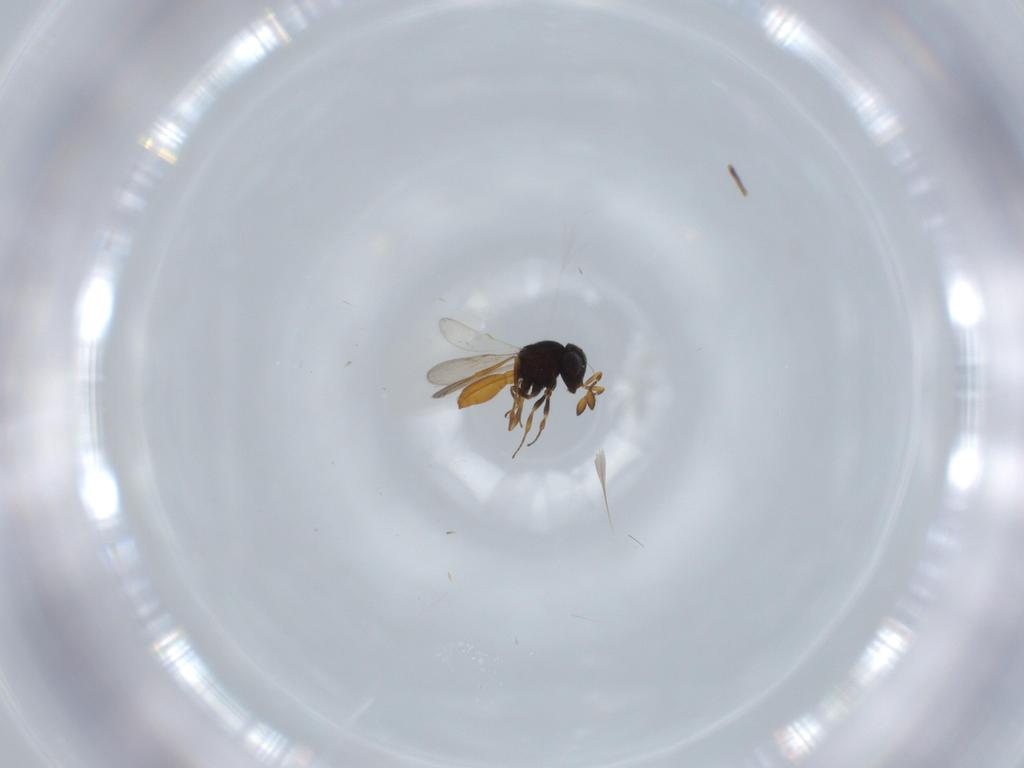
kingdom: Animalia
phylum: Arthropoda
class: Insecta
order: Hymenoptera
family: Scelionidae
